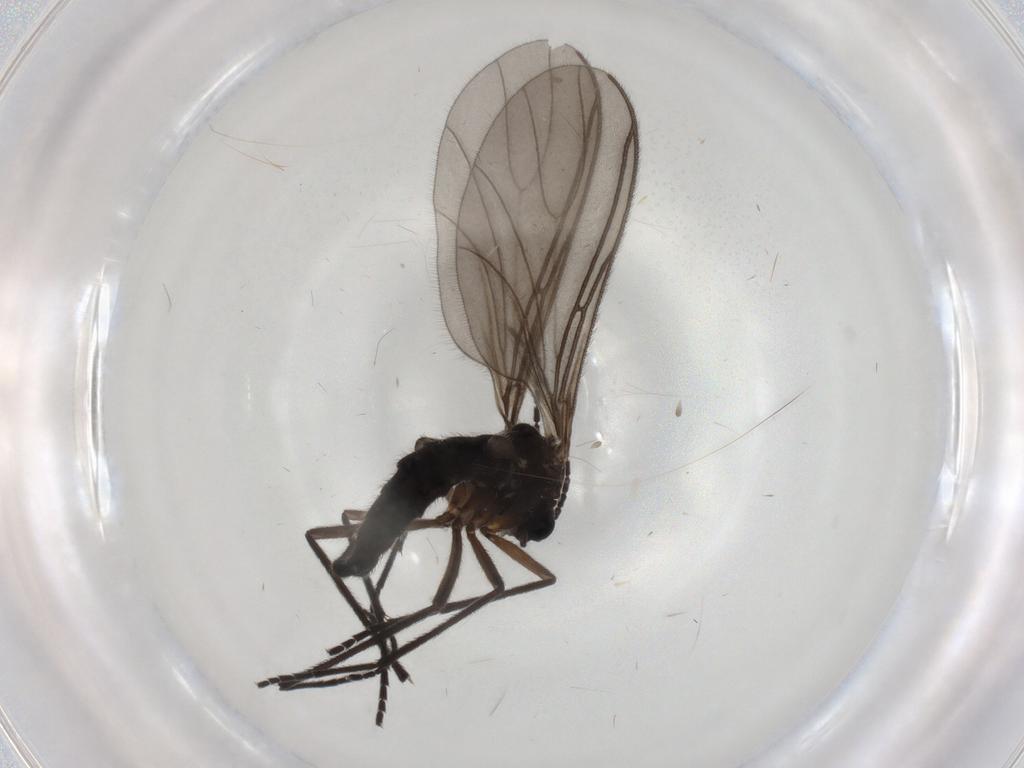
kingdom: Animalia
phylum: Arthropoda
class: Insecta
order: Diptera
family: Sciaridae
